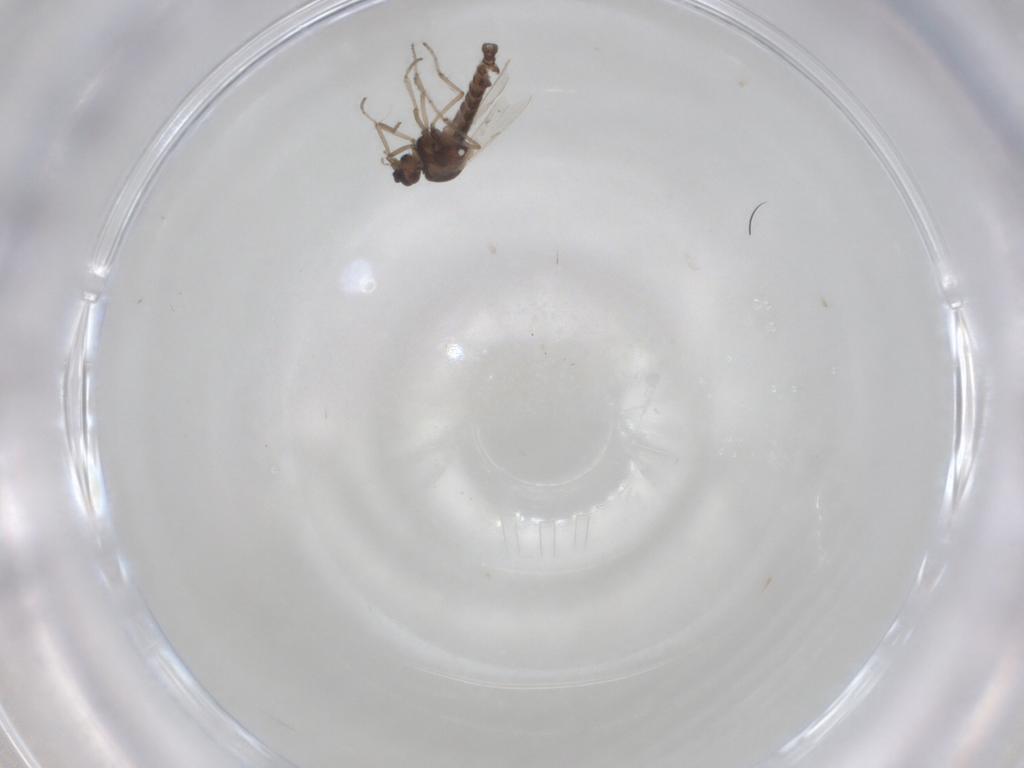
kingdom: Animalia
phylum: Arthropoda
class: Insecta
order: Diptera
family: Ceratopogonidae
